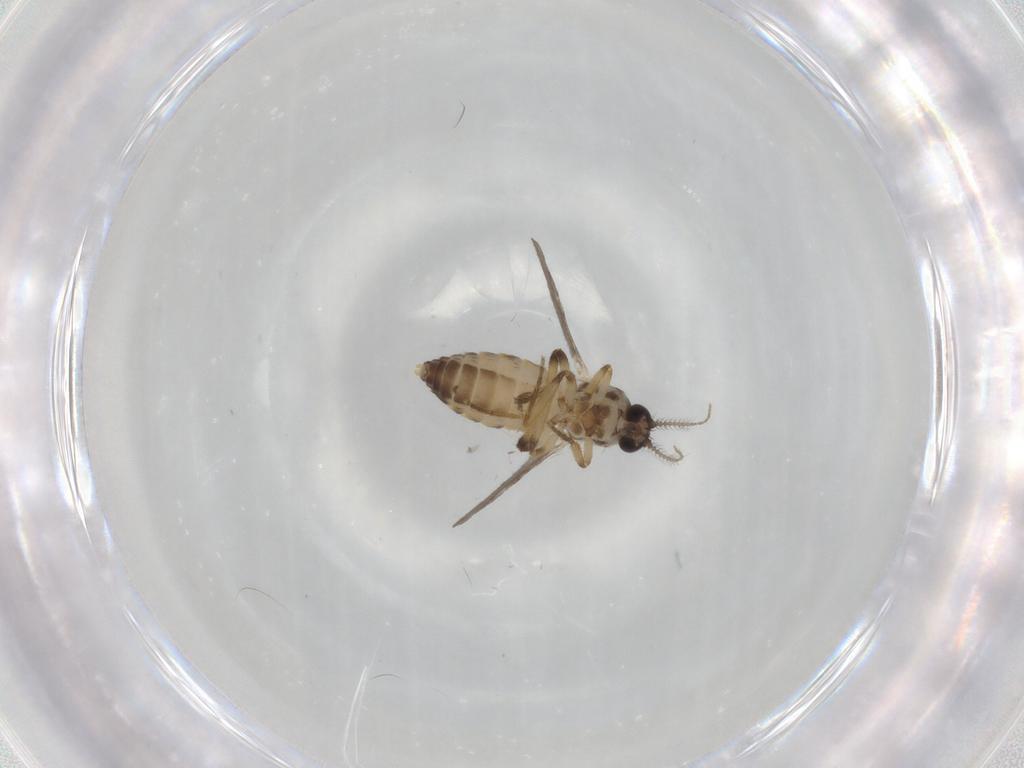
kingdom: Animalia
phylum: Arthropoda
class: Insecta
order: Diptera
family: Ceratopogonidae
